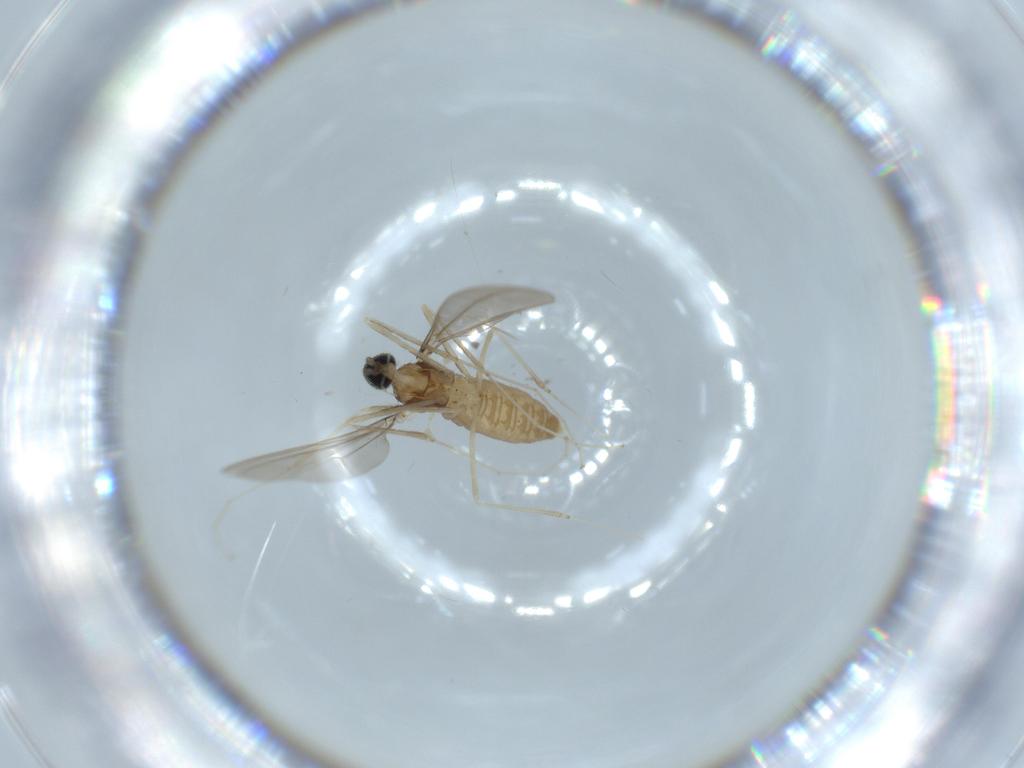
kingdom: Animalia
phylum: Arthropoda
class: Insecta
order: Diptera
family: Cecidomyiidae
